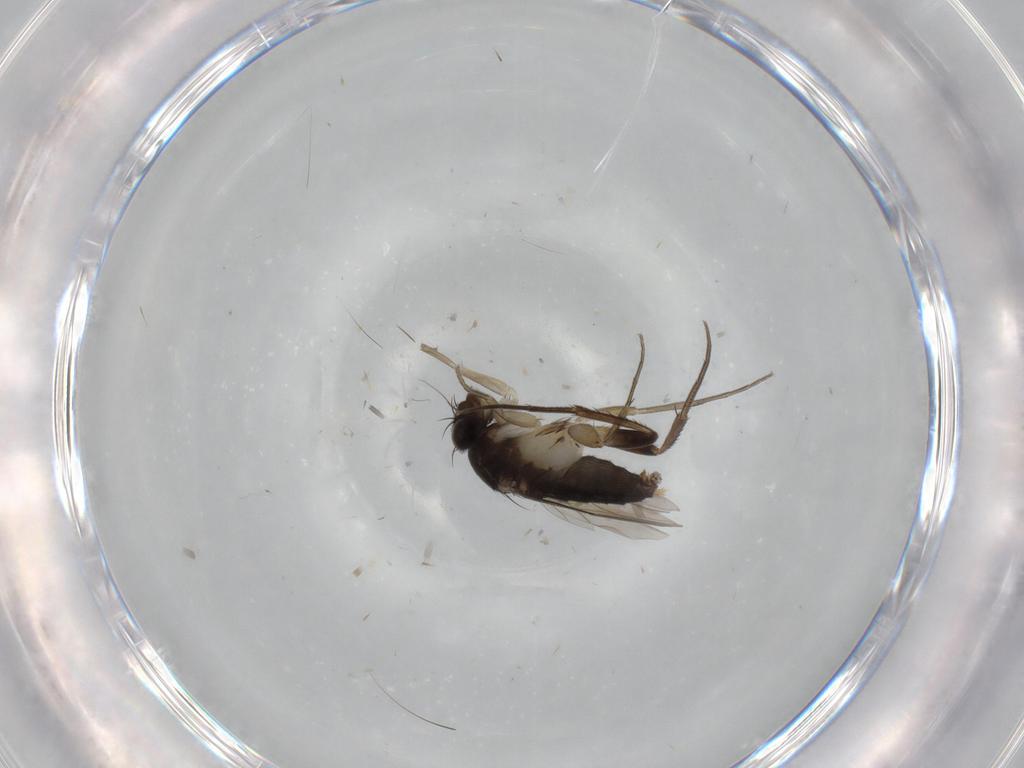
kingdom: Animalia
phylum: Arthropoda
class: Insecta
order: Diptera
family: Phoridae
